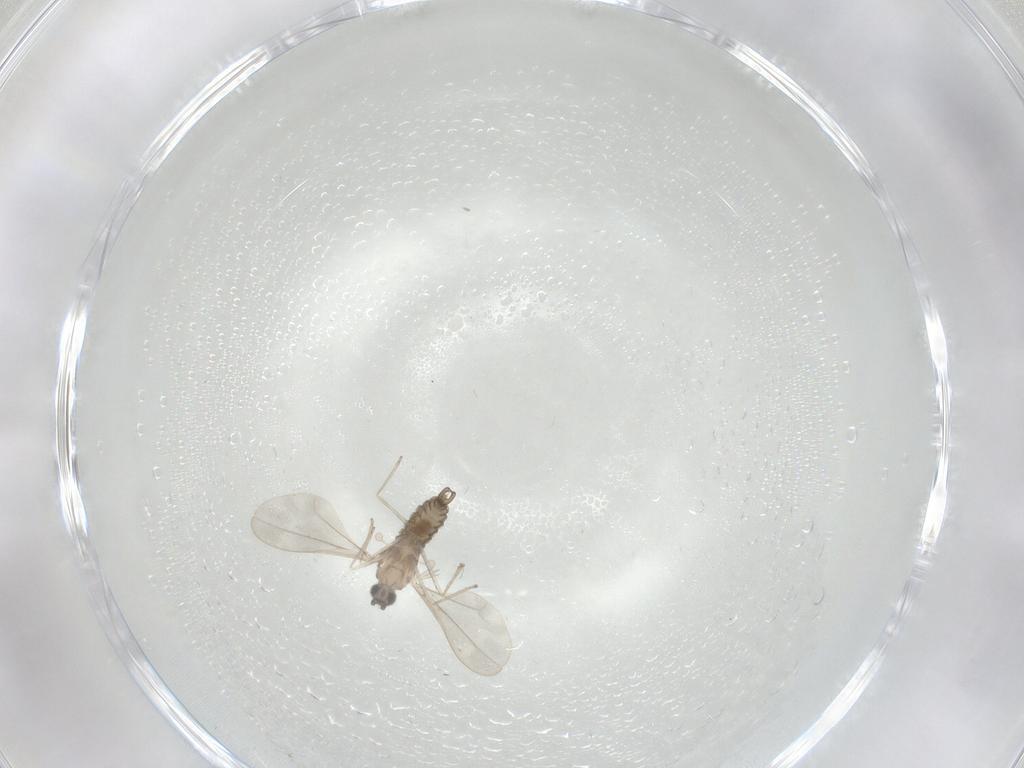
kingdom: Animalia
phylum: Arthropoda
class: Insecta
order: Diptera
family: Cecidomyiidae
